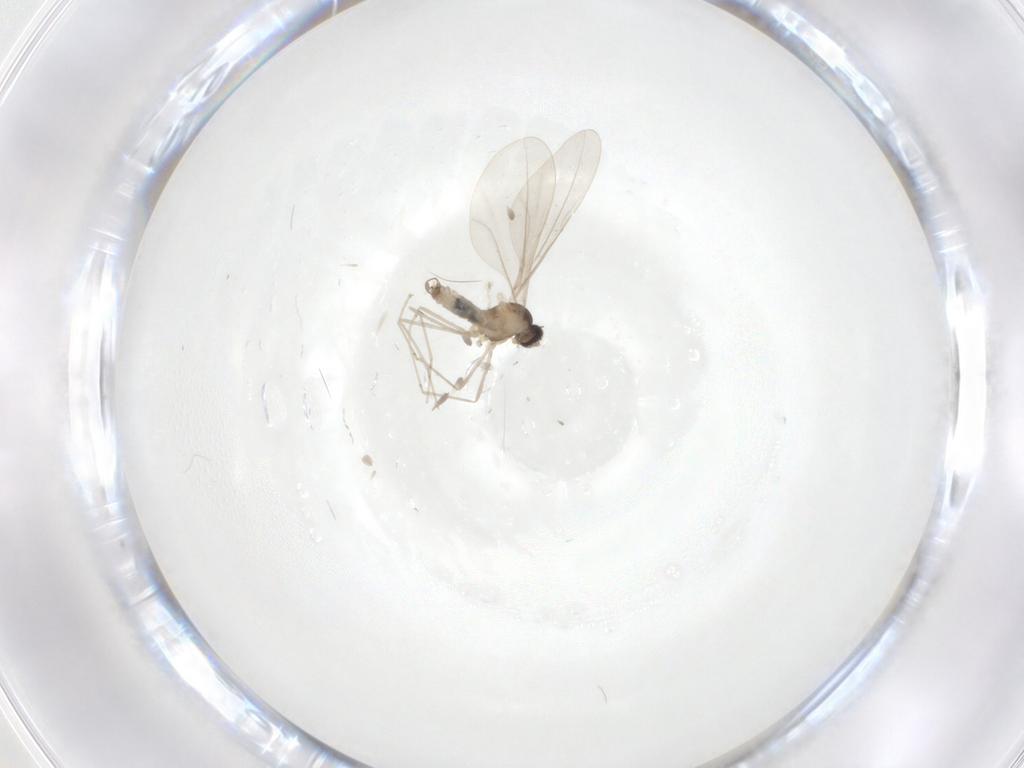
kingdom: Animalia
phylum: Arthropoda
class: Insecta
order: Diptera
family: Cecidomyiidae
